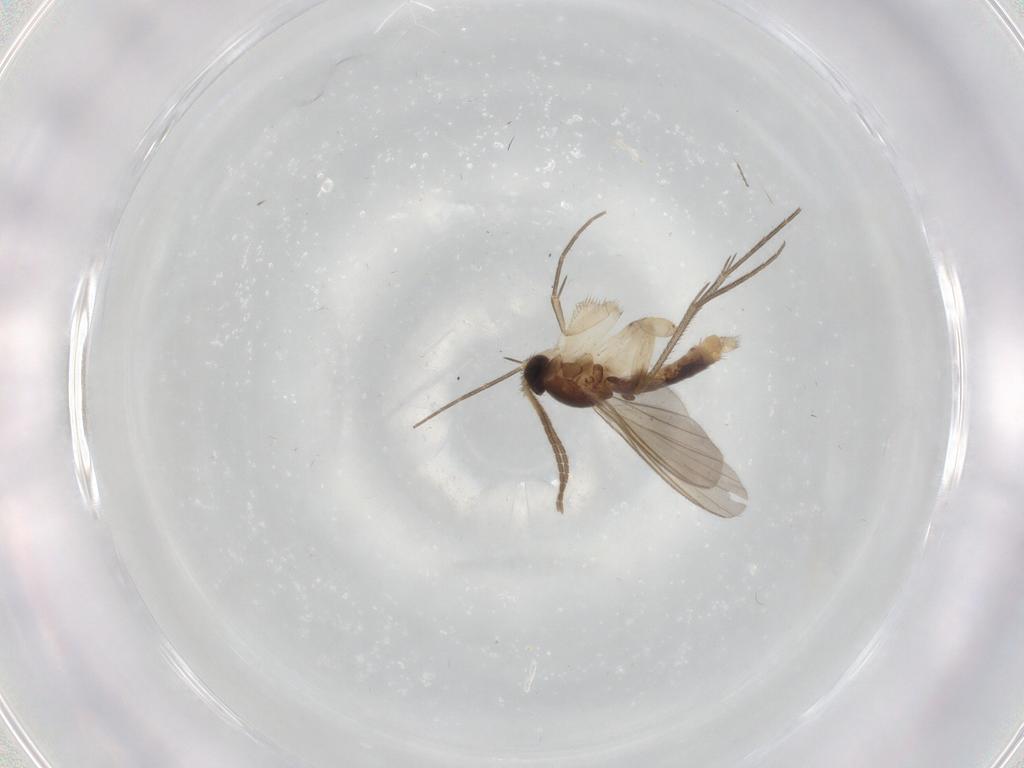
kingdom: Animalia
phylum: Arthropoda
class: Insecta
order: Diptera
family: Mycetophilidae
